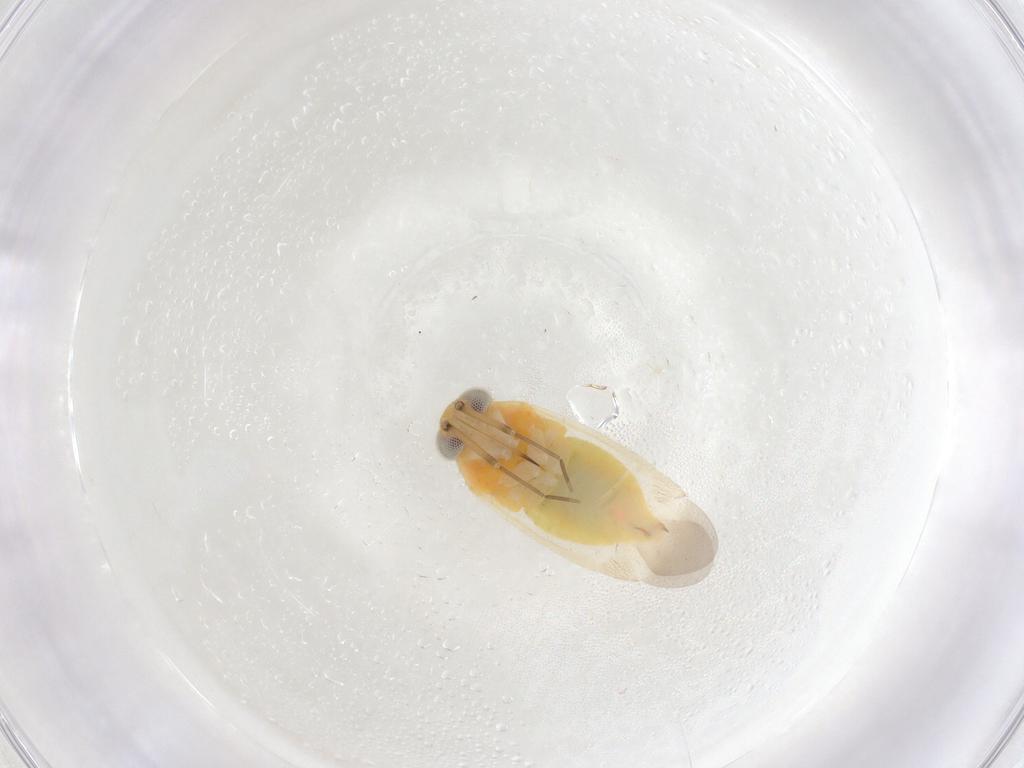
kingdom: Animalia
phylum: Arthropoda
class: Insecta
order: Hemiptera
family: Miridae
